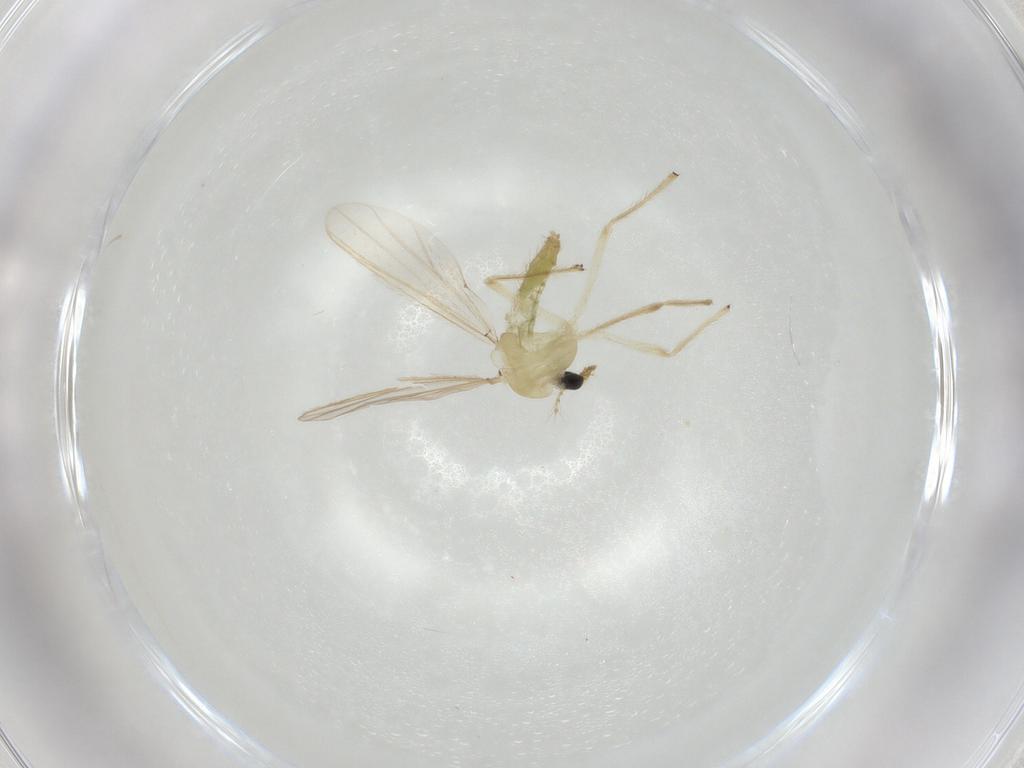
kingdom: Animalia
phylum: Arthropoda
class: Insecta
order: Diptera
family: Chironomidae
